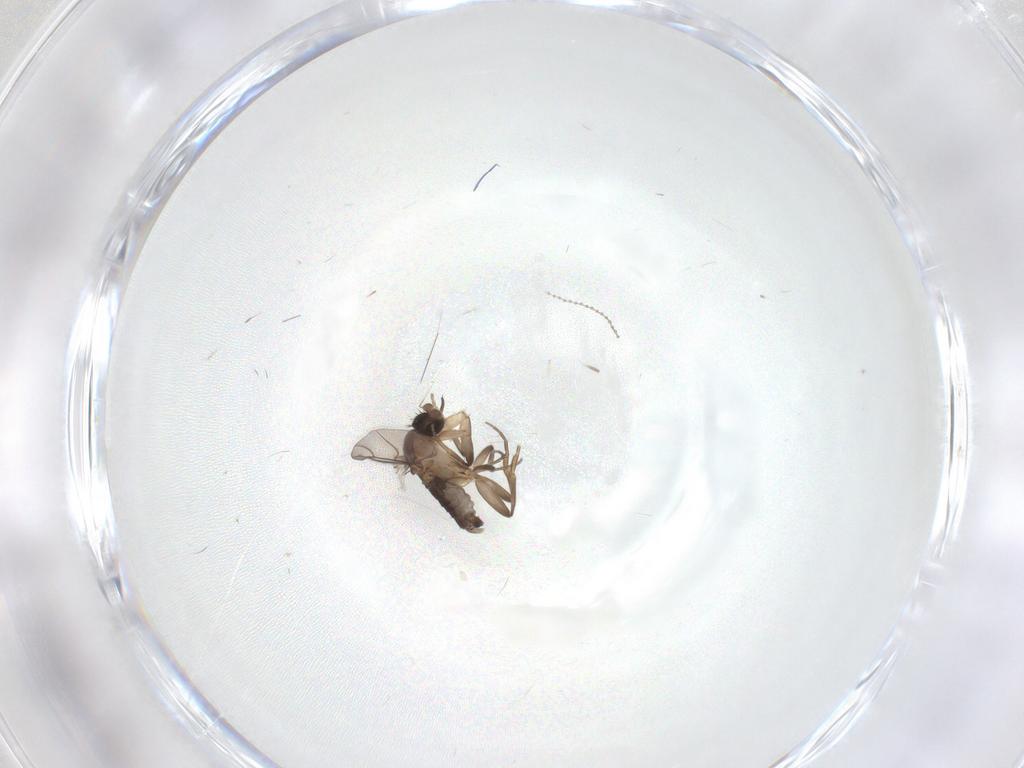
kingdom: Animalia
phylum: Arthropoda
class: Insecta
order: Diptera
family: Phoridae
